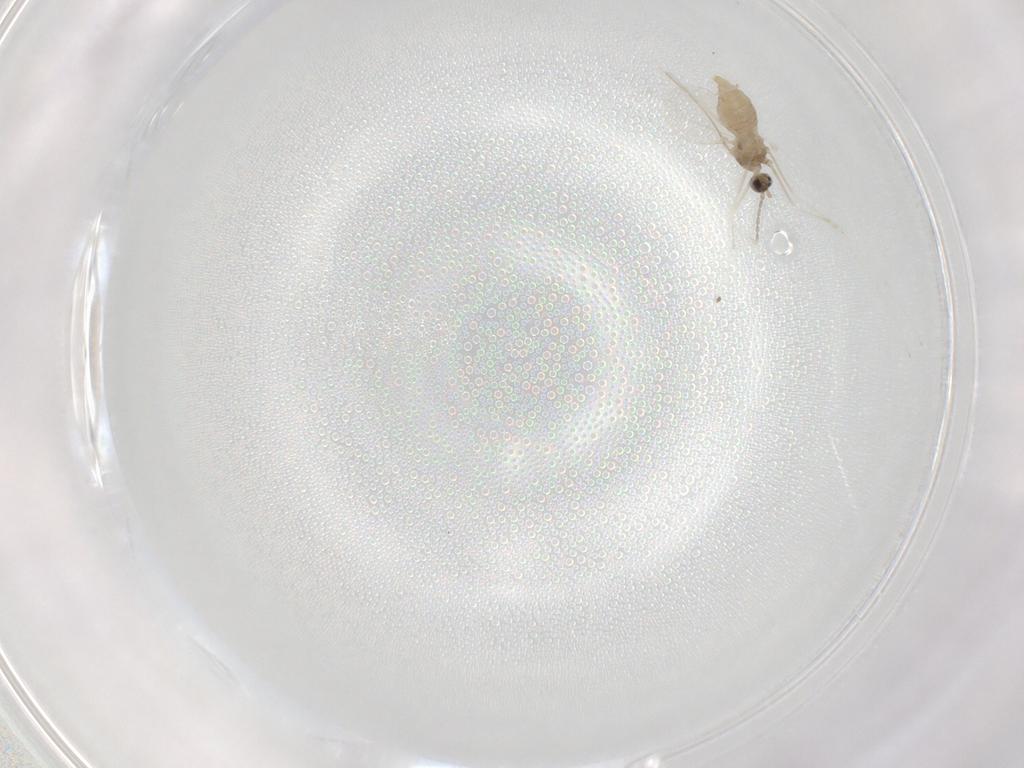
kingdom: Animalia
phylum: Arthropoda
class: Insecta
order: Diptera
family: Cecidomyiidae
